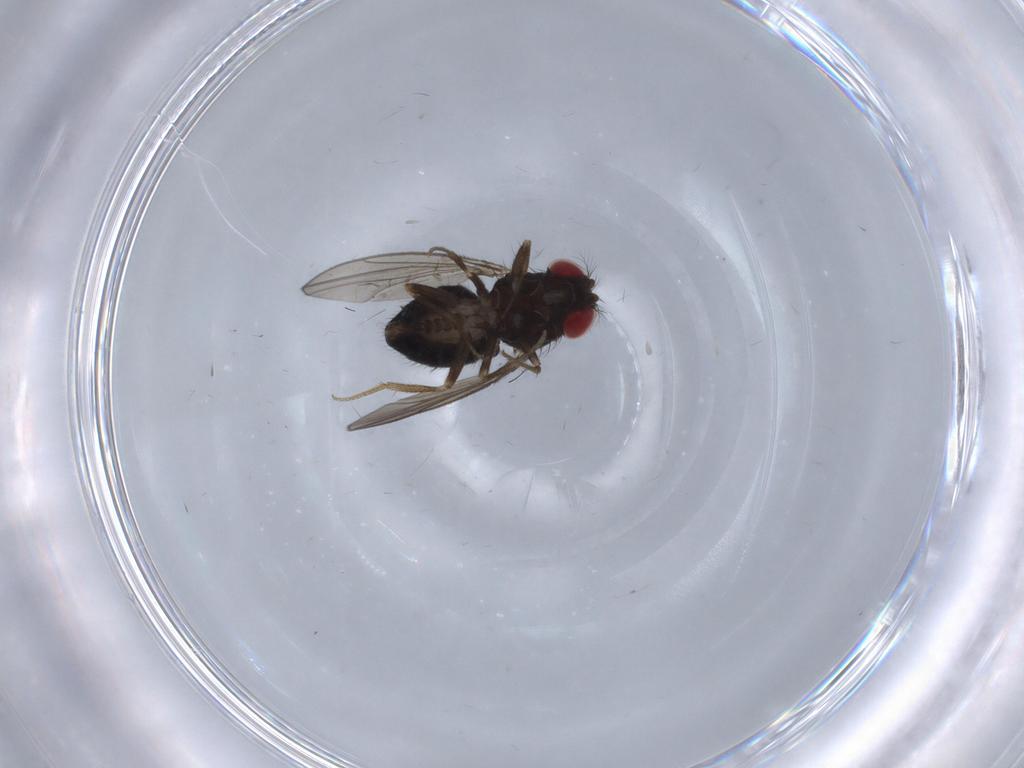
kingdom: Animalia
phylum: Arthropoda
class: Insecta
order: Diptera
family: Drosophilidae
